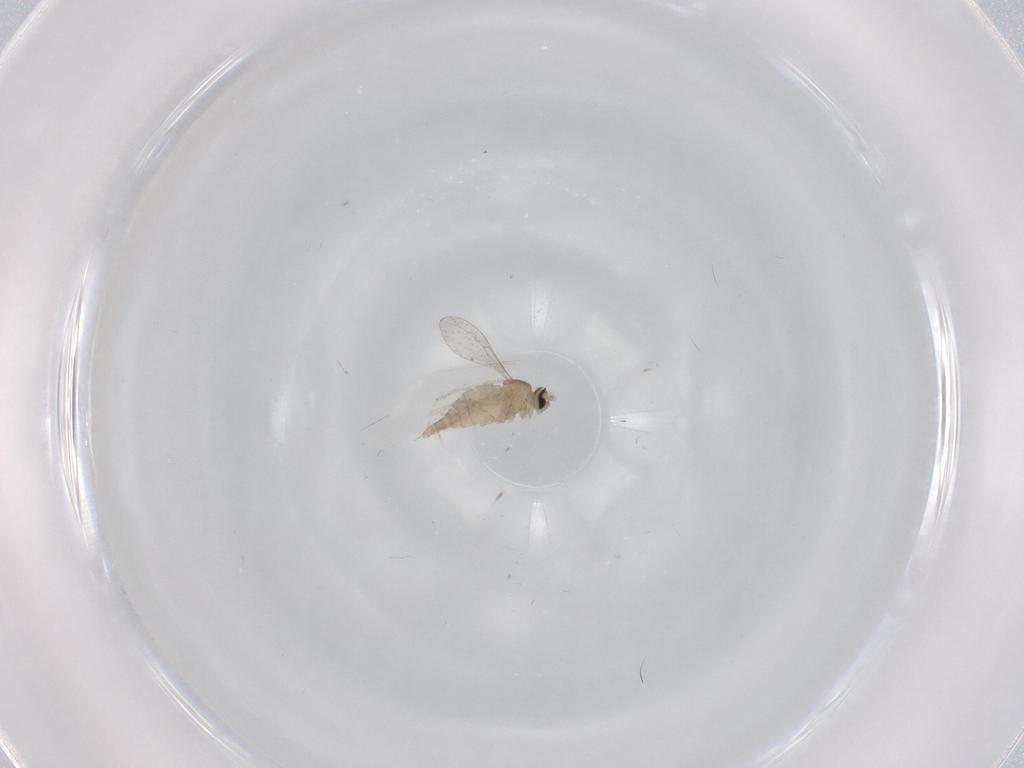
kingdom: Animalia
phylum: Arthropoda
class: Insecta
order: Diptera
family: Cecidomyiidae
